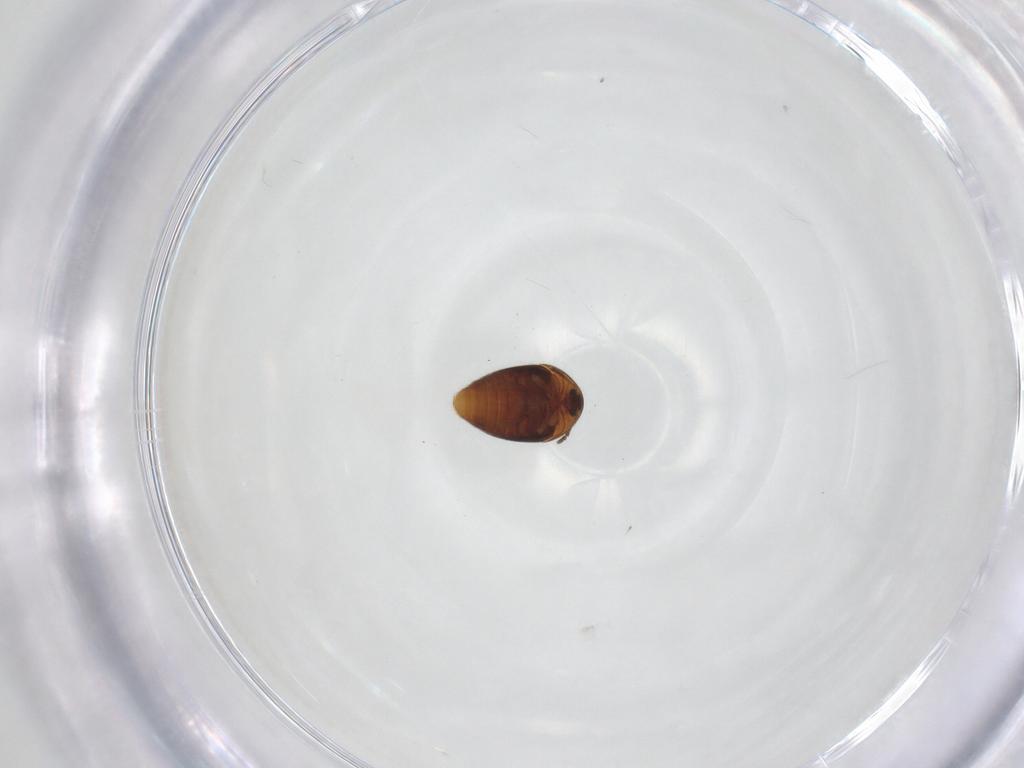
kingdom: Animalia
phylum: Arthropoda
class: Insecta
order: Coleoptera
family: Corylophidae
